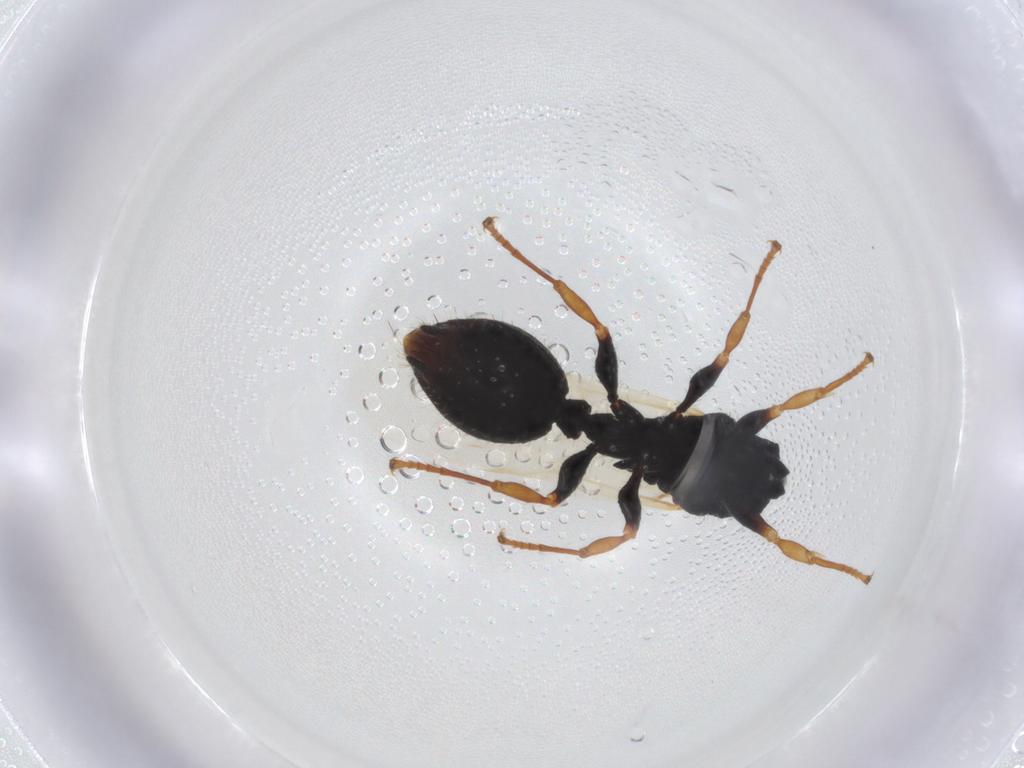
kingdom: Animalia
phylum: Arthropoda
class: Insecta
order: Hymenoptera
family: Formicidae
